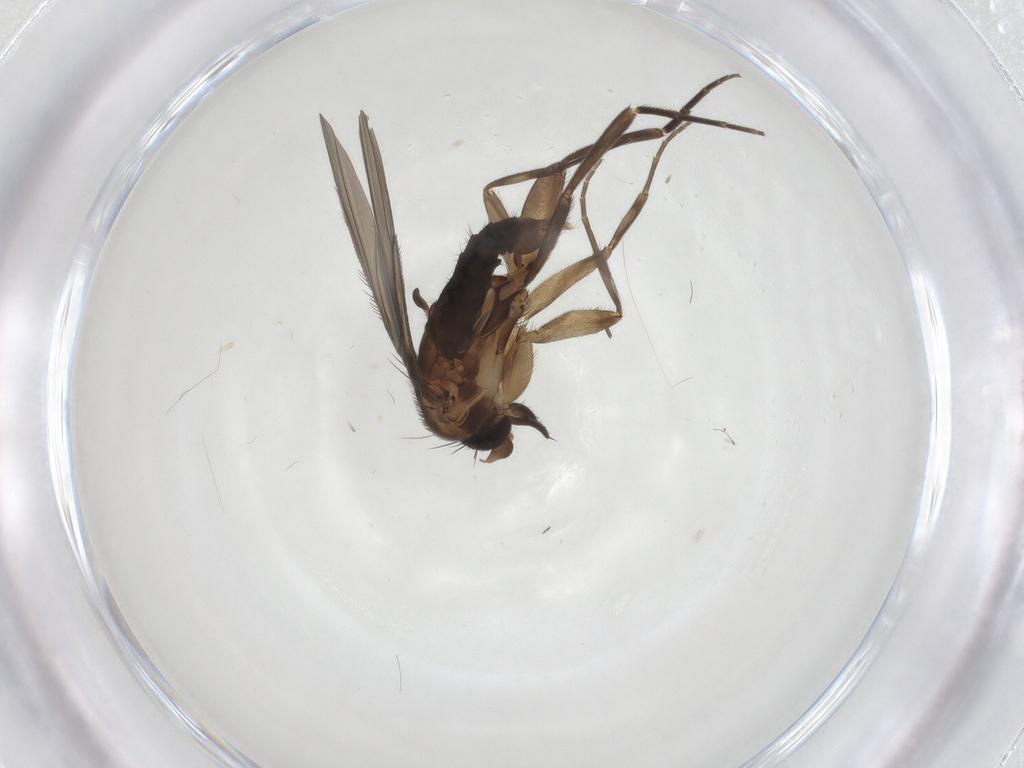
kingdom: Animalia
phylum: Arthropoda
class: Insecta
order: Diptera
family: Phoridae
